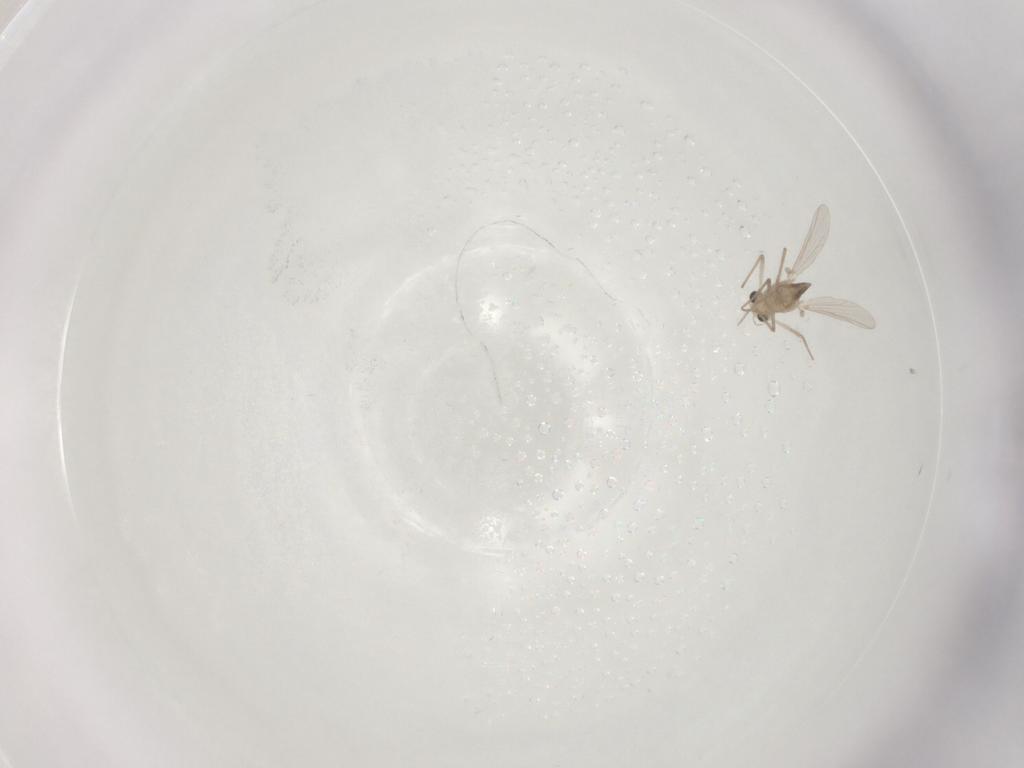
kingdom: Animalia
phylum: Arthropoda
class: Insecta
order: Diptera
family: Chironomidae
